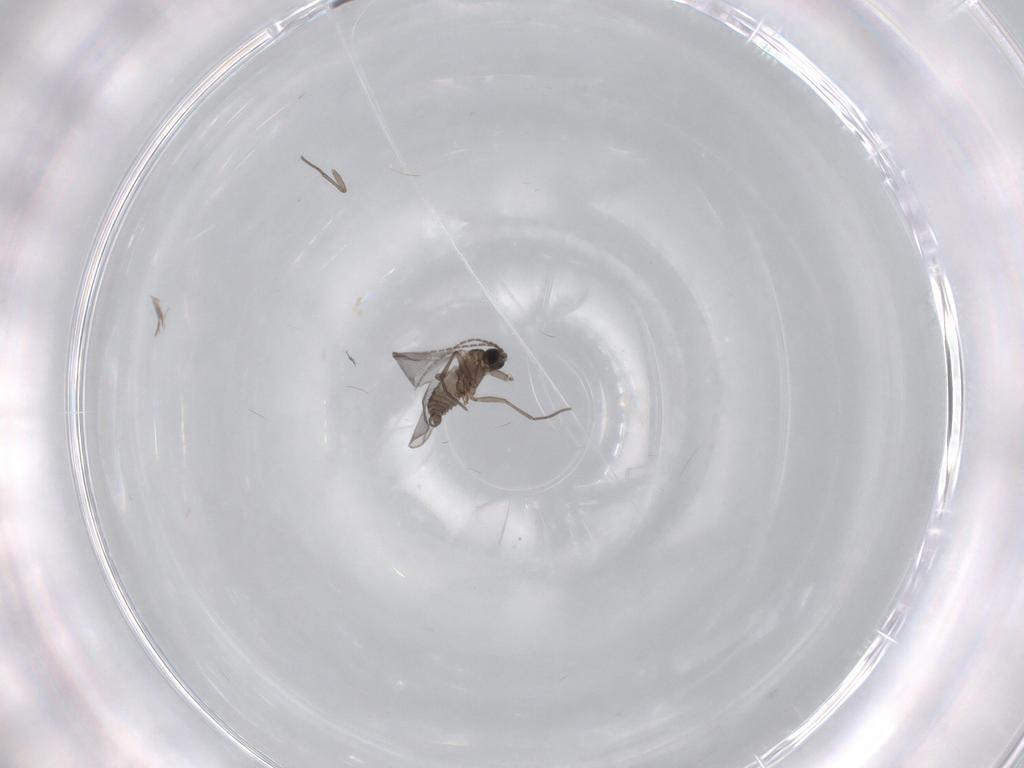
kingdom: Animalia
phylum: Arthropoda
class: Insecta
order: Diptera
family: Sciaridae
